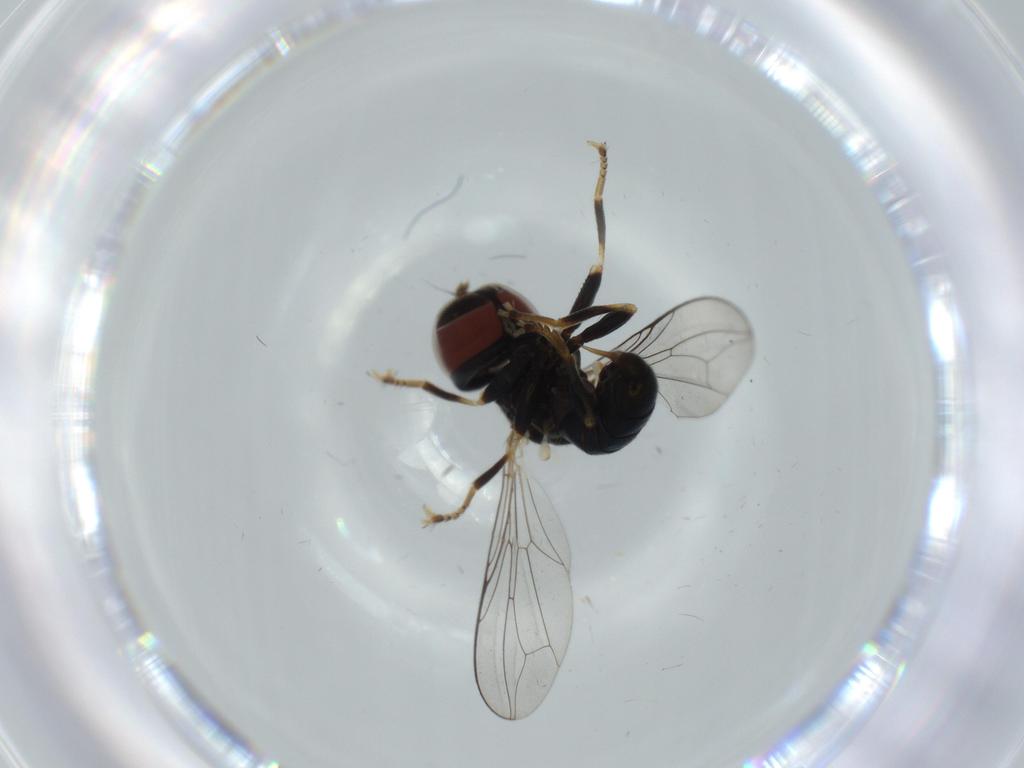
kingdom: Animalia
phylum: Arthropoda
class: Insecta
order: Diptera
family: Pipunculidae
